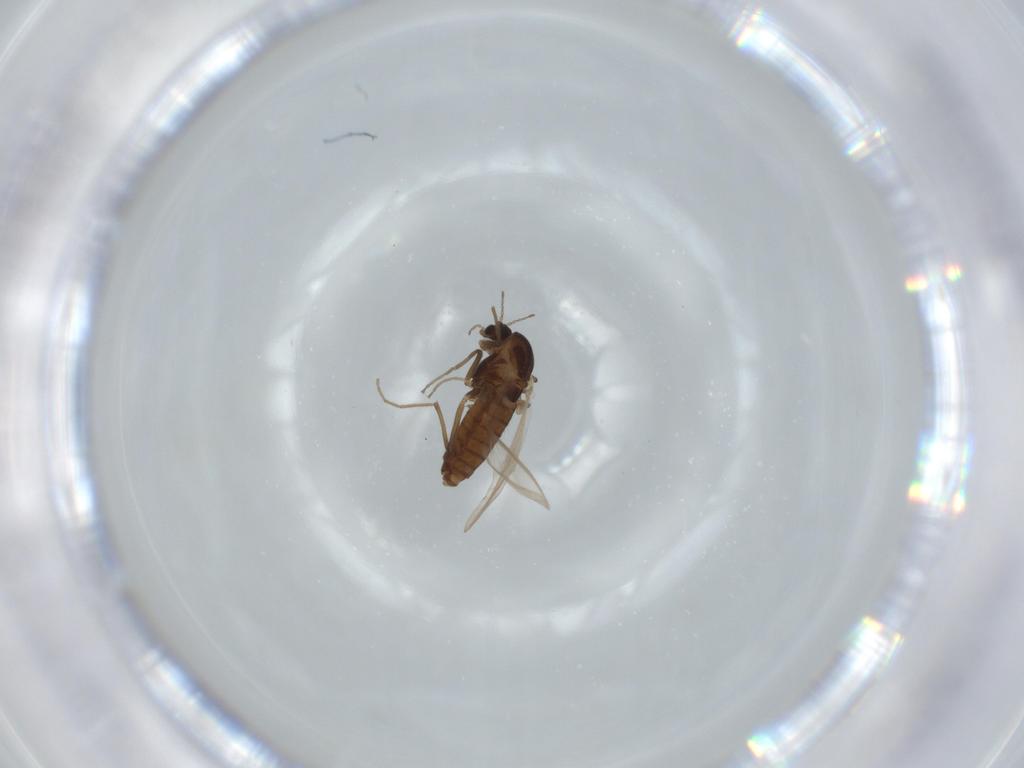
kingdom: Animalia
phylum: Arthropoda
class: Insecta
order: Diptera
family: Chironomidae
